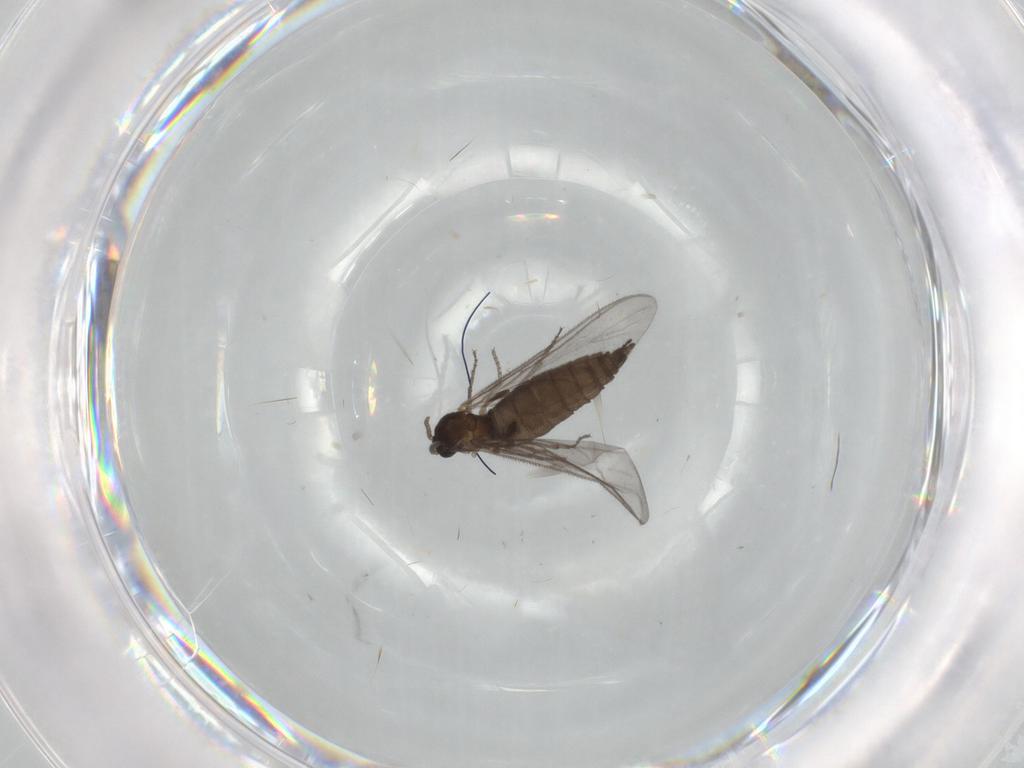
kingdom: Animalia
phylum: Arthropoda
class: Insecta
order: Diptera
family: Sciaridae
